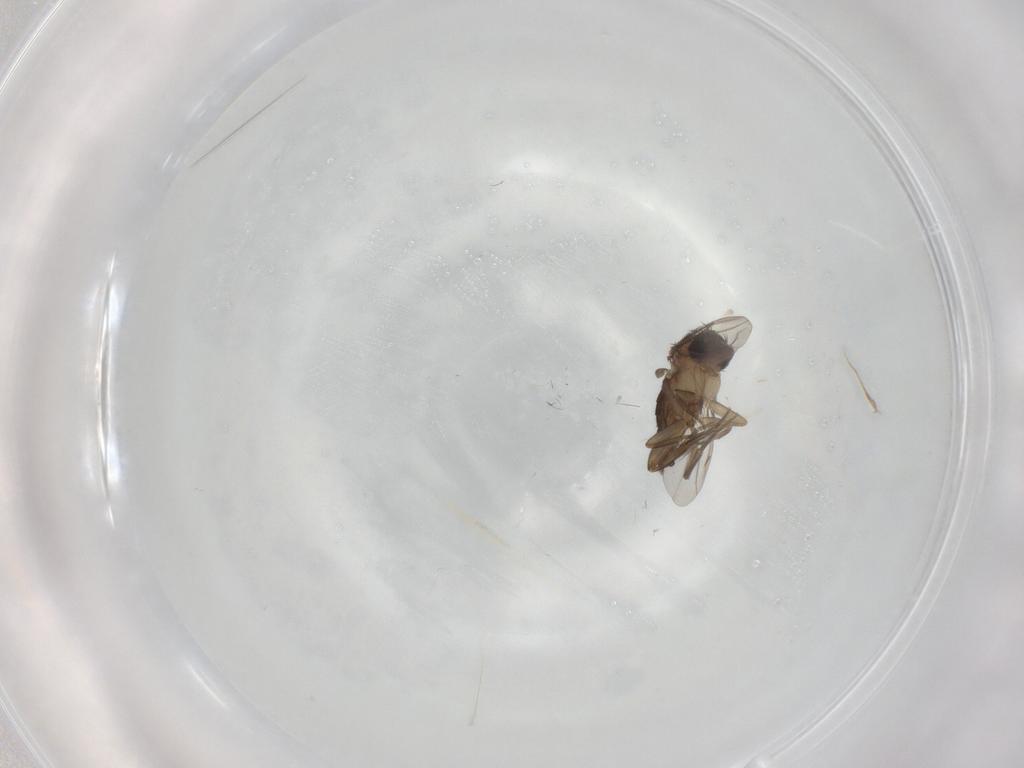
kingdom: Animalia
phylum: Arthropoda
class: Insecta
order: Diptera
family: Phoridae
